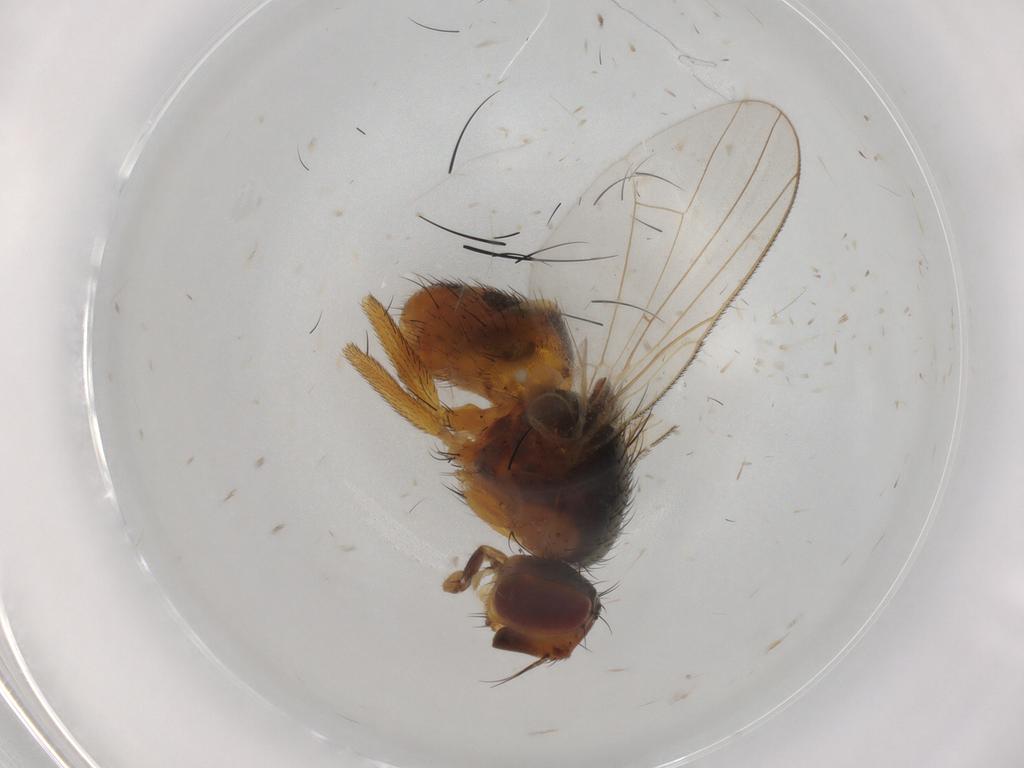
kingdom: Animalia
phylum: Arthropoda
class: Insecta
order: Diptera
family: Muscidae
